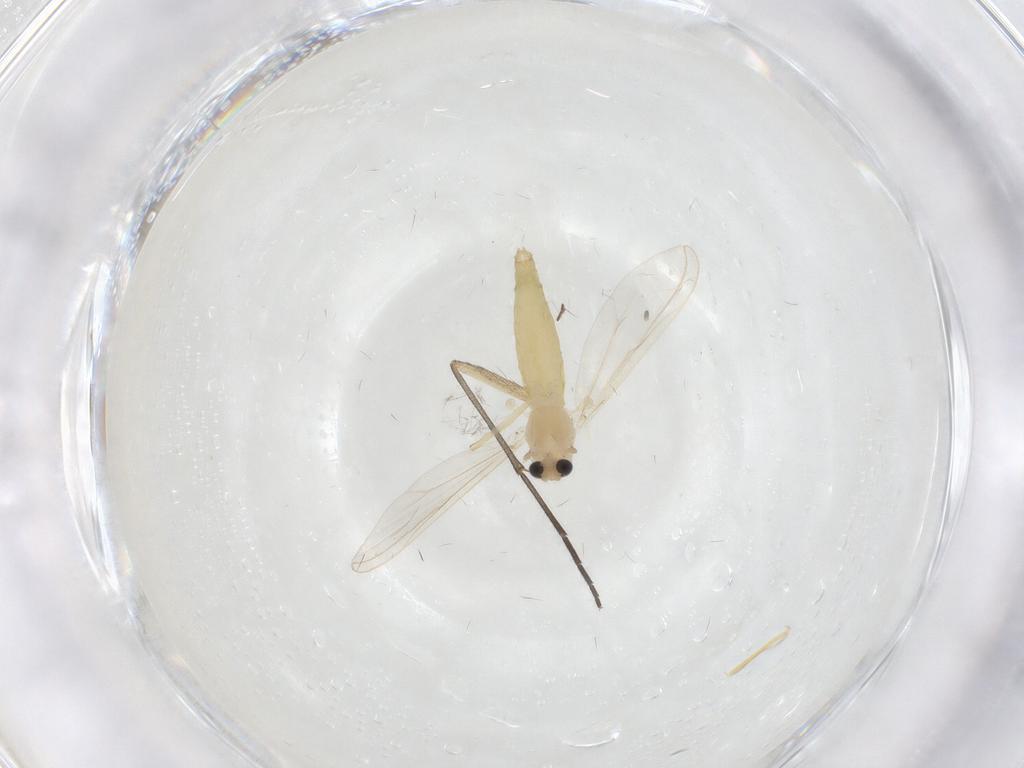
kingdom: Animalia
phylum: Arthropoda
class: Insecta
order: Diptera
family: Chironomidae
